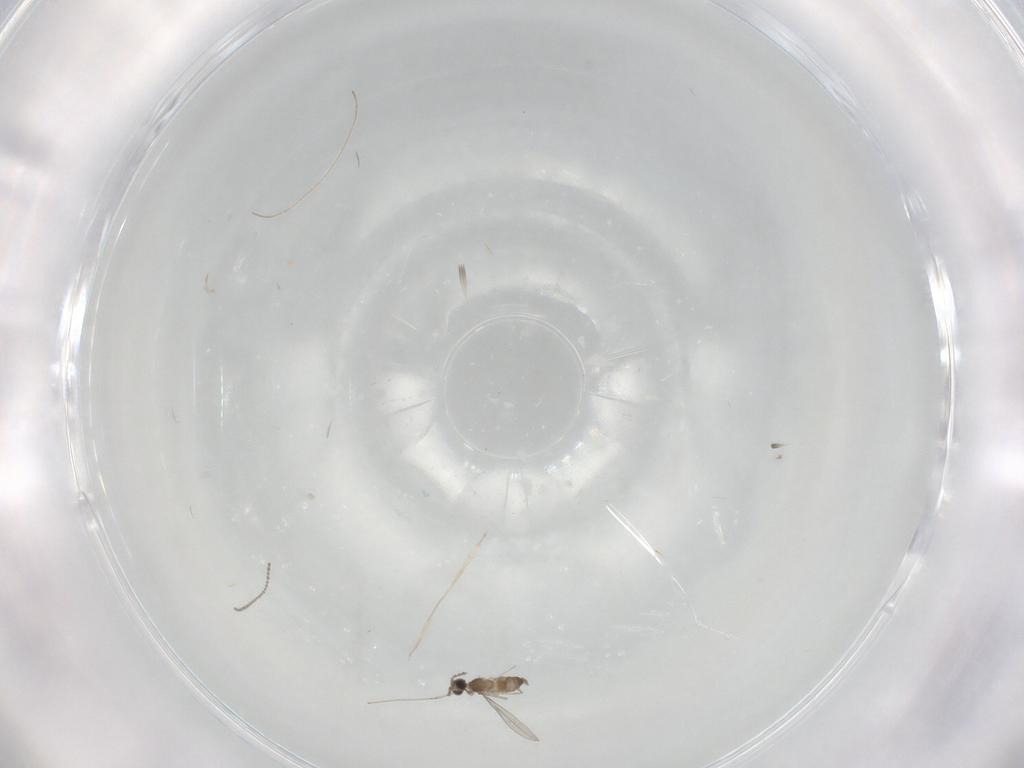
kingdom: Animalia
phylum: Arthropoda
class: Insecta
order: Diptera
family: Cecidomyiidae
